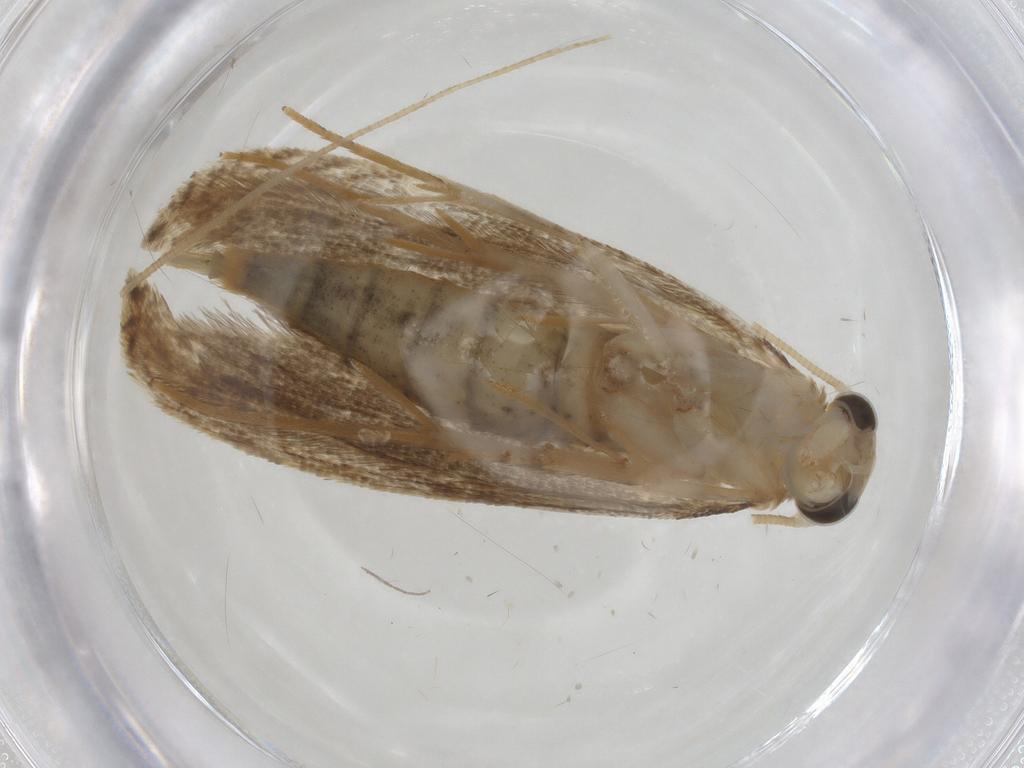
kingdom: Animalia
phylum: Arthropoda
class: Insecta
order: Lepidoptera
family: Nepticulidae
